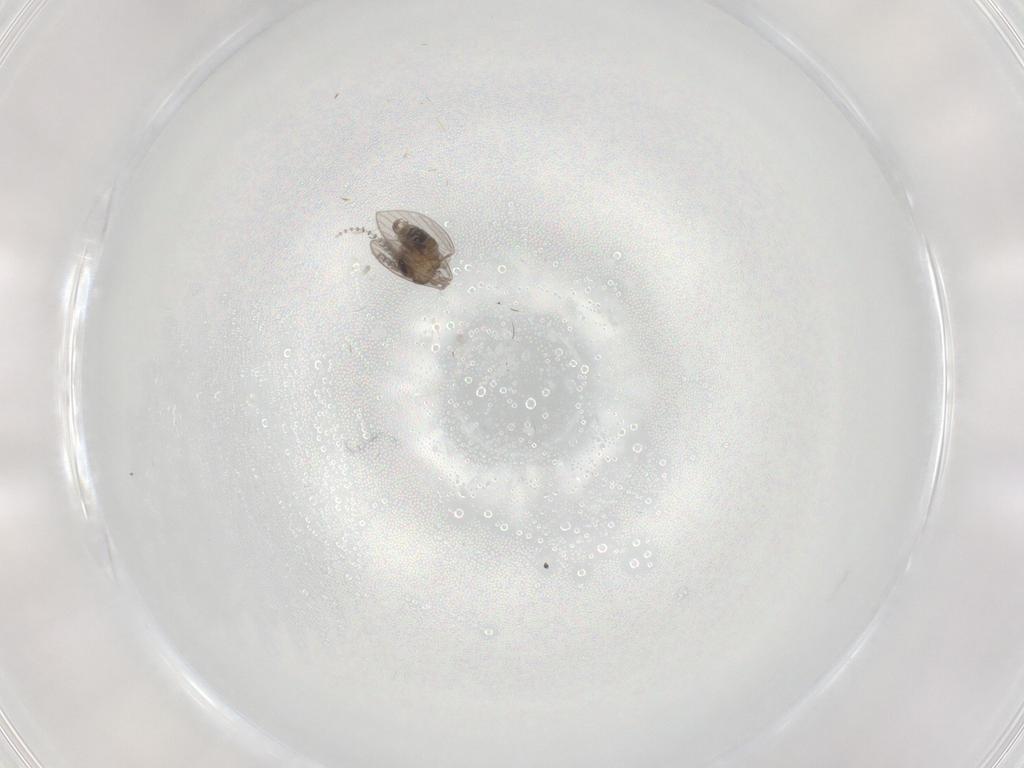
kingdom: Animalia
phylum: Arthropoda
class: Insecta
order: Diptera
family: Psychodidae
